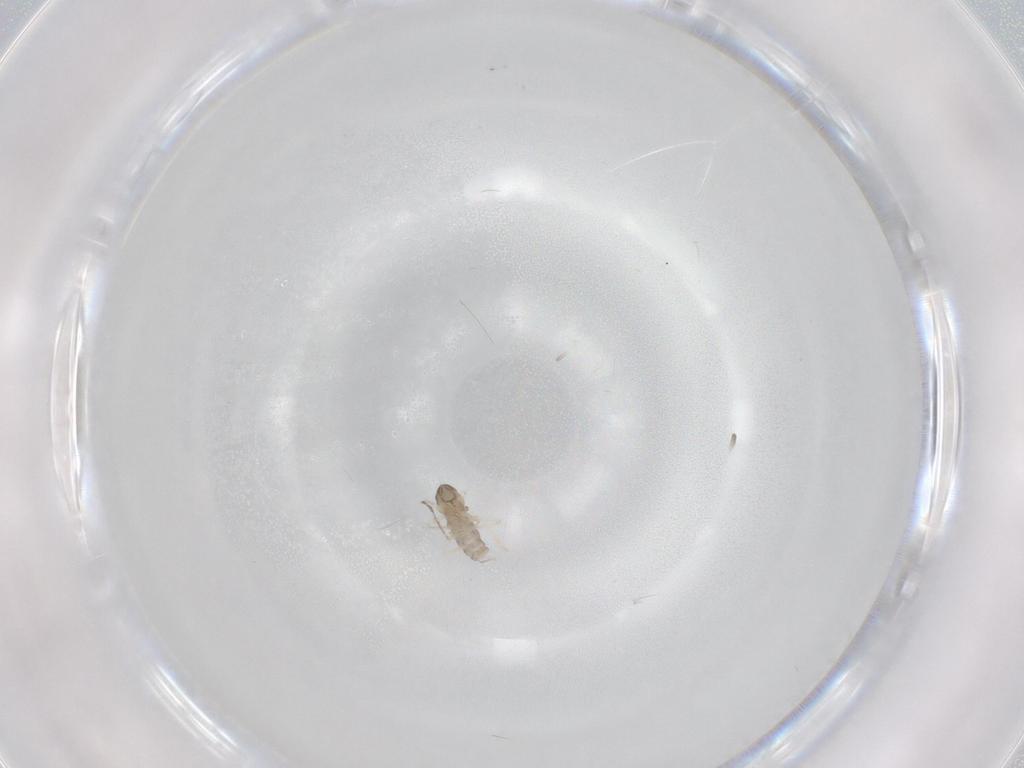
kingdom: Animalia
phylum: Arthropoda
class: Insecta
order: Diptera
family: Cecidomyiidae
